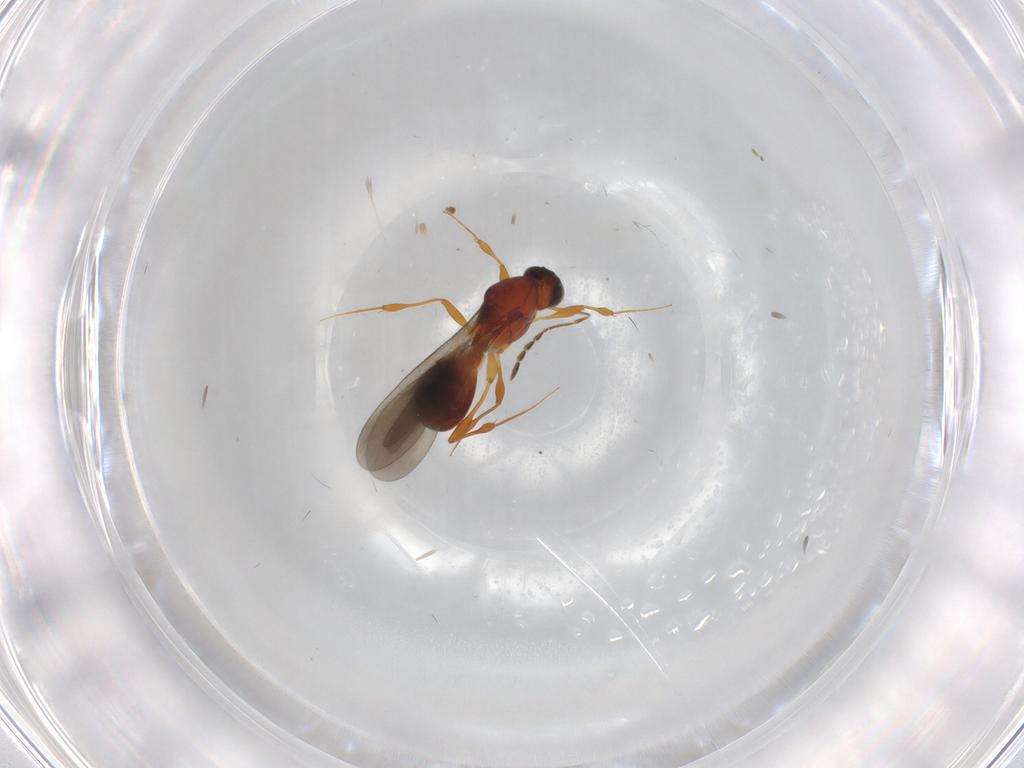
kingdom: Animalia
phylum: Arthropoda
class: Insecta
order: Hymenoptera
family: Platygastridae
